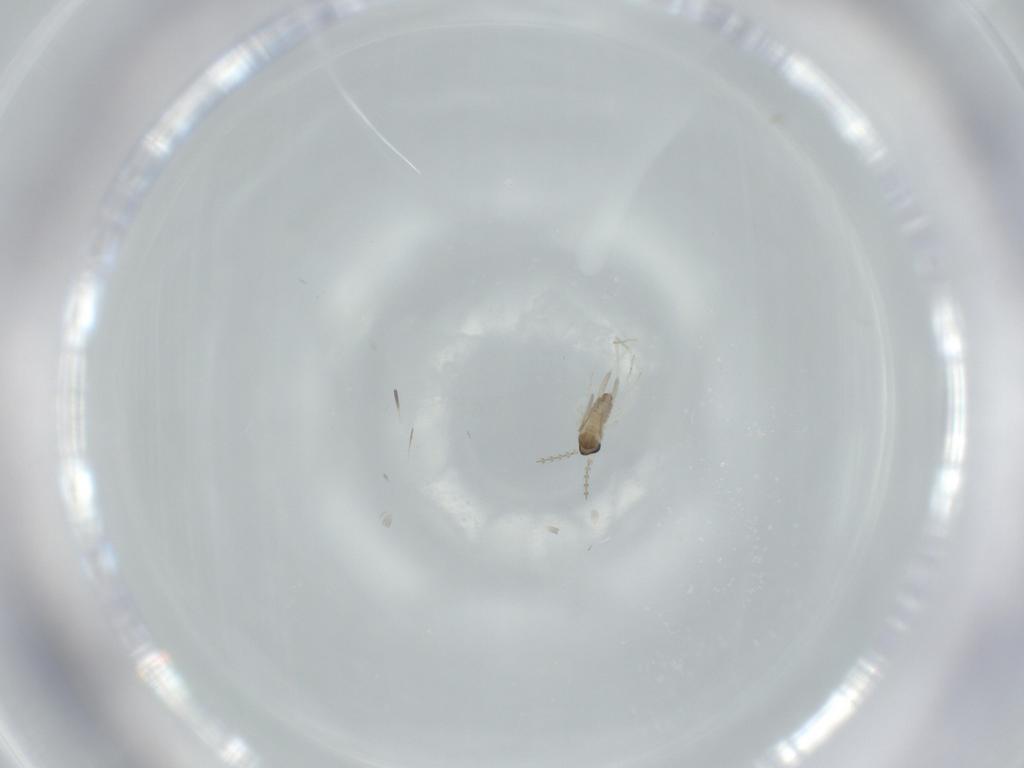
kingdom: Animalia
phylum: Arthropoda
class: Insecta
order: Diptera
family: Cecidomyiidae
